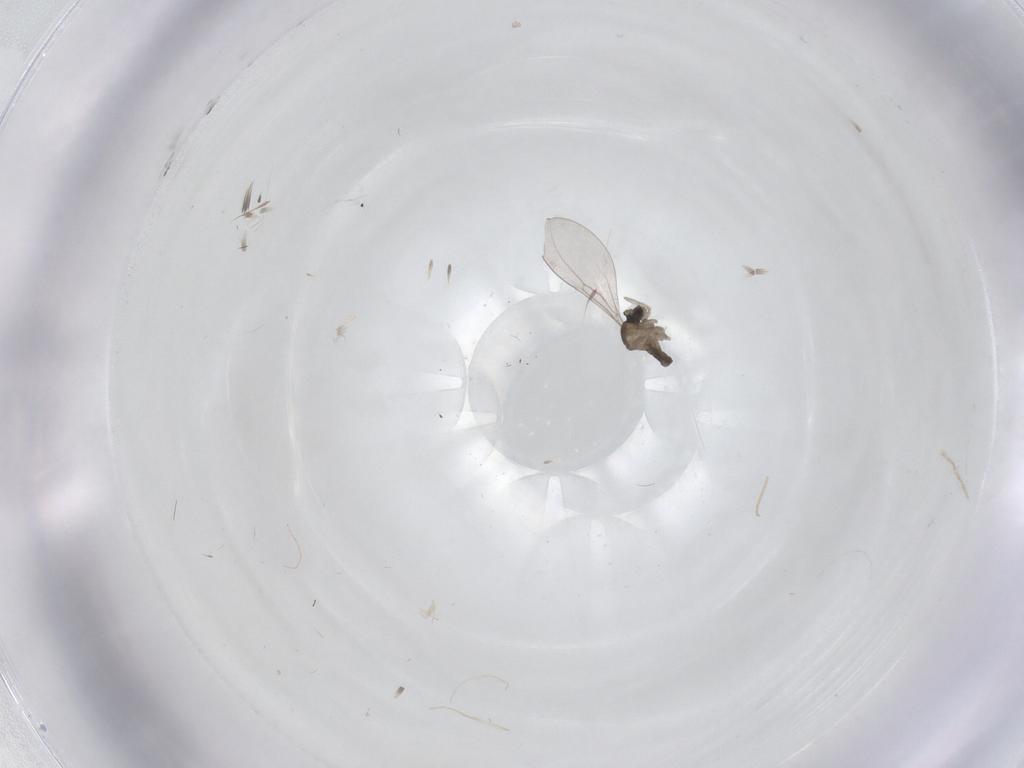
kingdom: Animalia
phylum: Arthropoda
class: Insecta
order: Diptera
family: Cecidomyiidae
